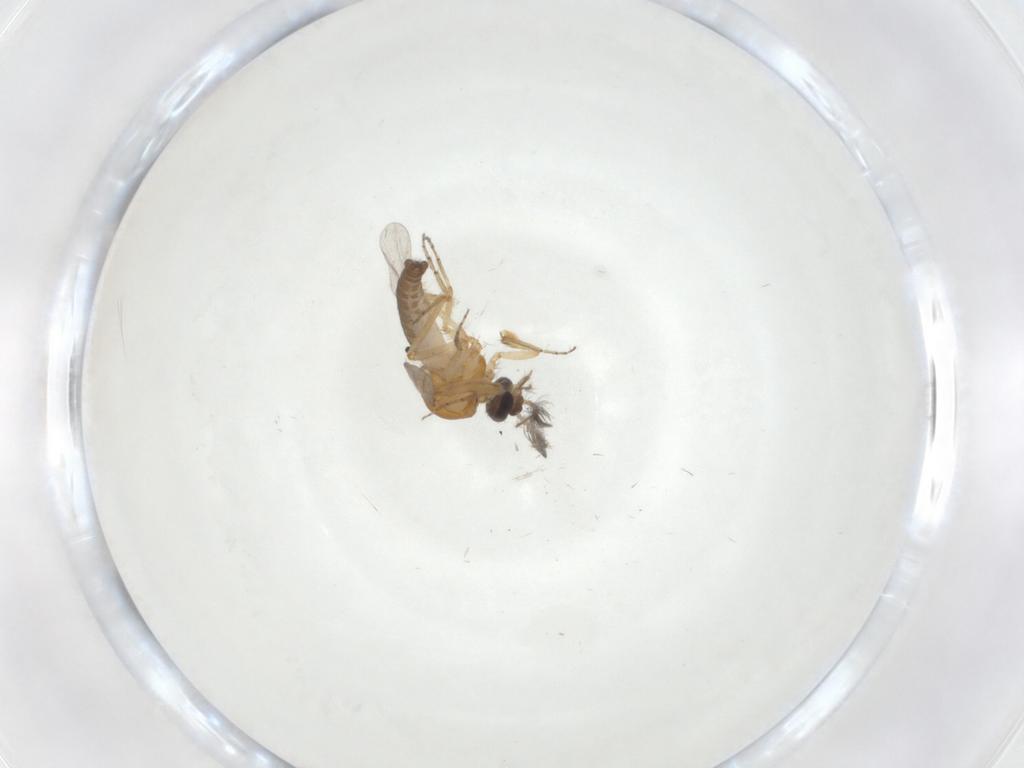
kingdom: Animalia
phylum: Arthropoda
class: Insecta
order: Diptera
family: Ceratopogonidae
